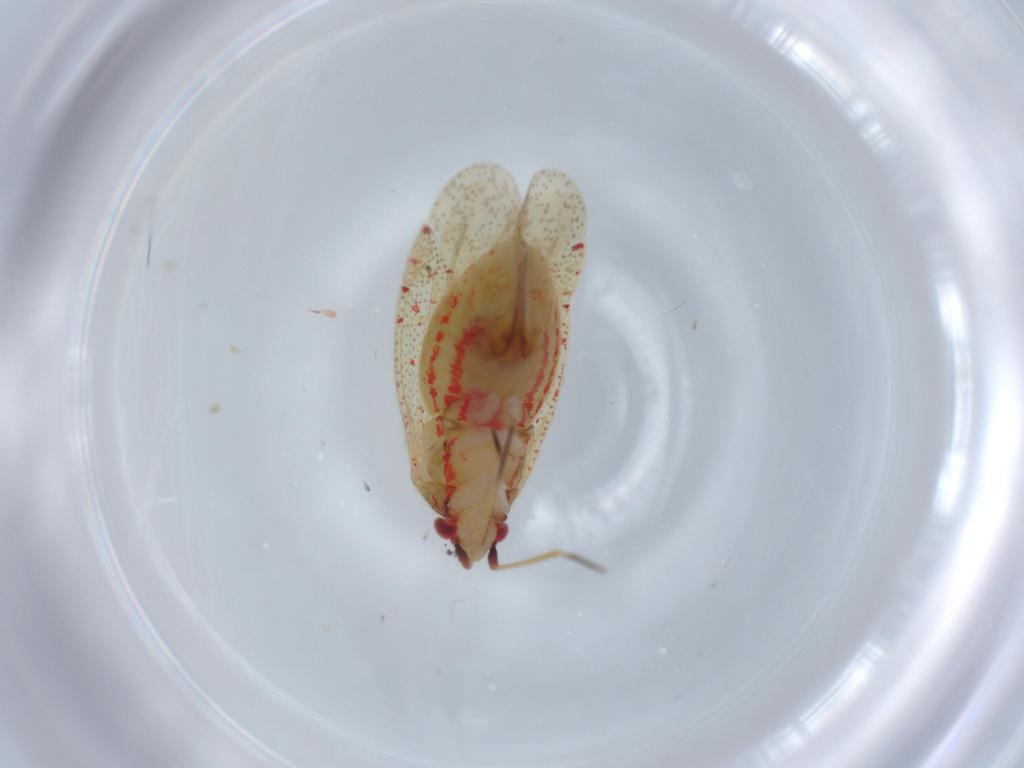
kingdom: Animalia
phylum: Arthropoda
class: Insecta
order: Hemiptera
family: Miridae
